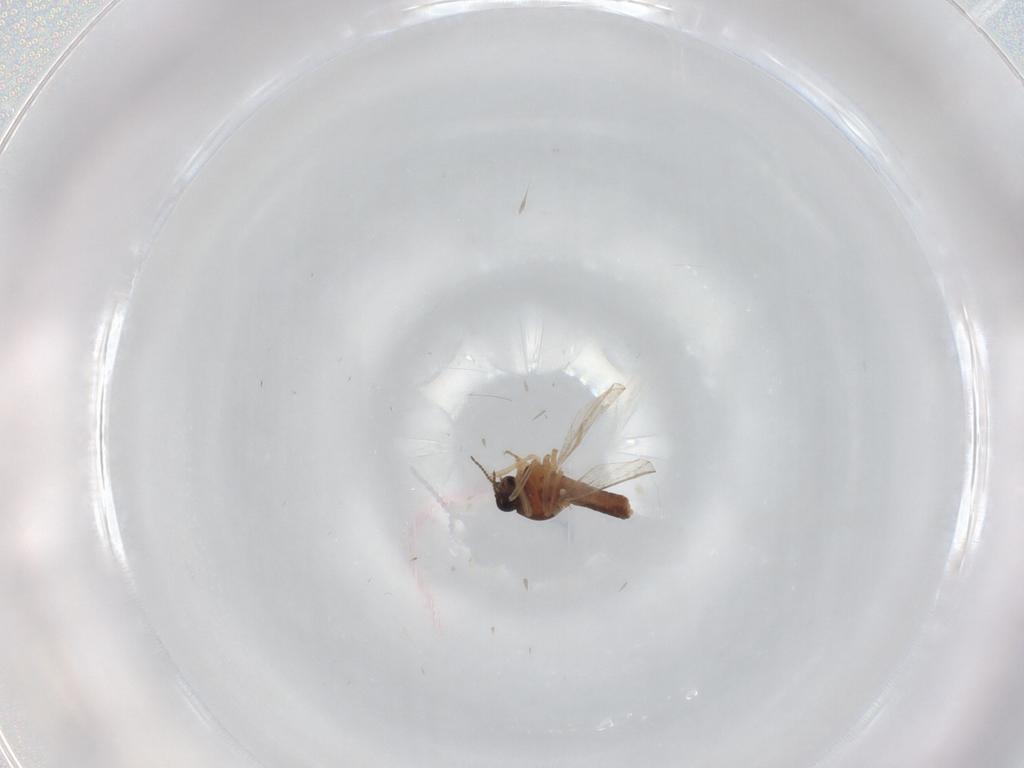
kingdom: Animalia
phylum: Arthropoda
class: Insecta
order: Diptera
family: Ceratopogonidae
